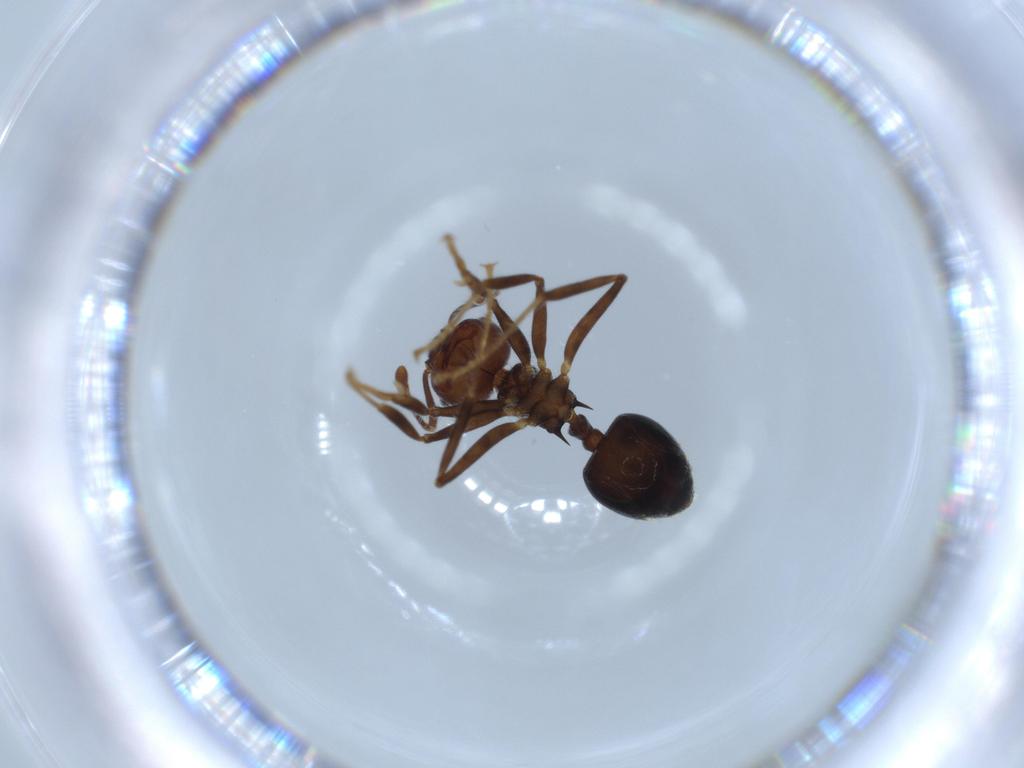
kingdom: Animalia
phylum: Arthropoda
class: Insecta
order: Hymenoptera
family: Formicidae
